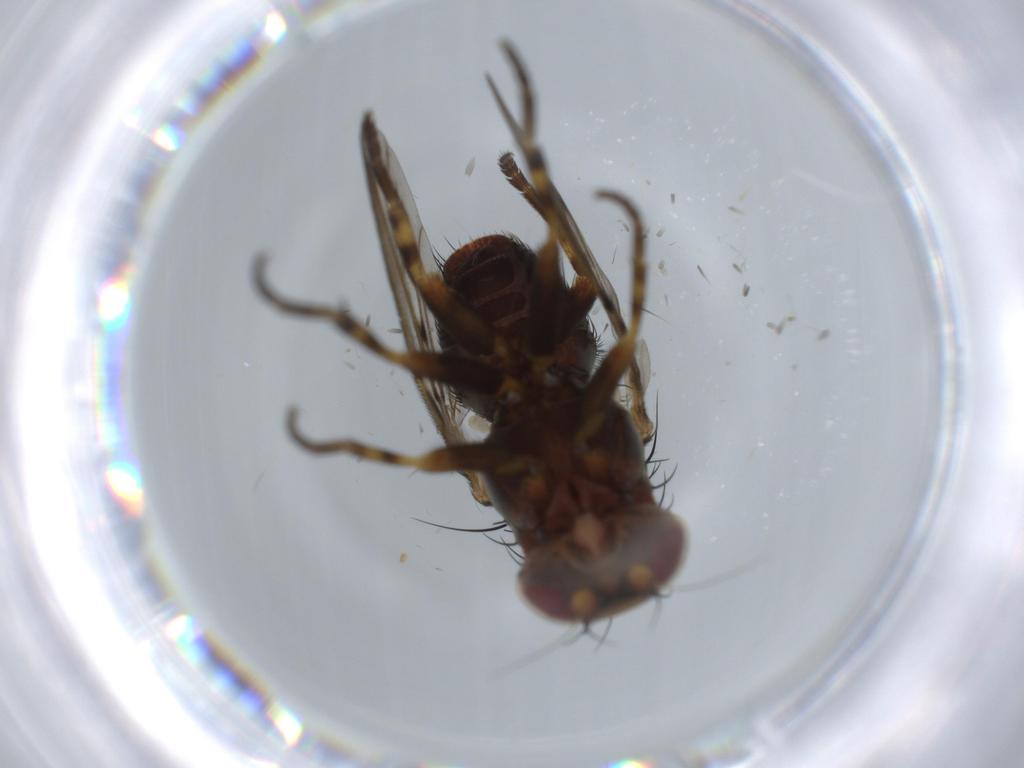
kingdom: Animalia
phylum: Arthropoda
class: Insecta
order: Diptera
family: Odiniidae
